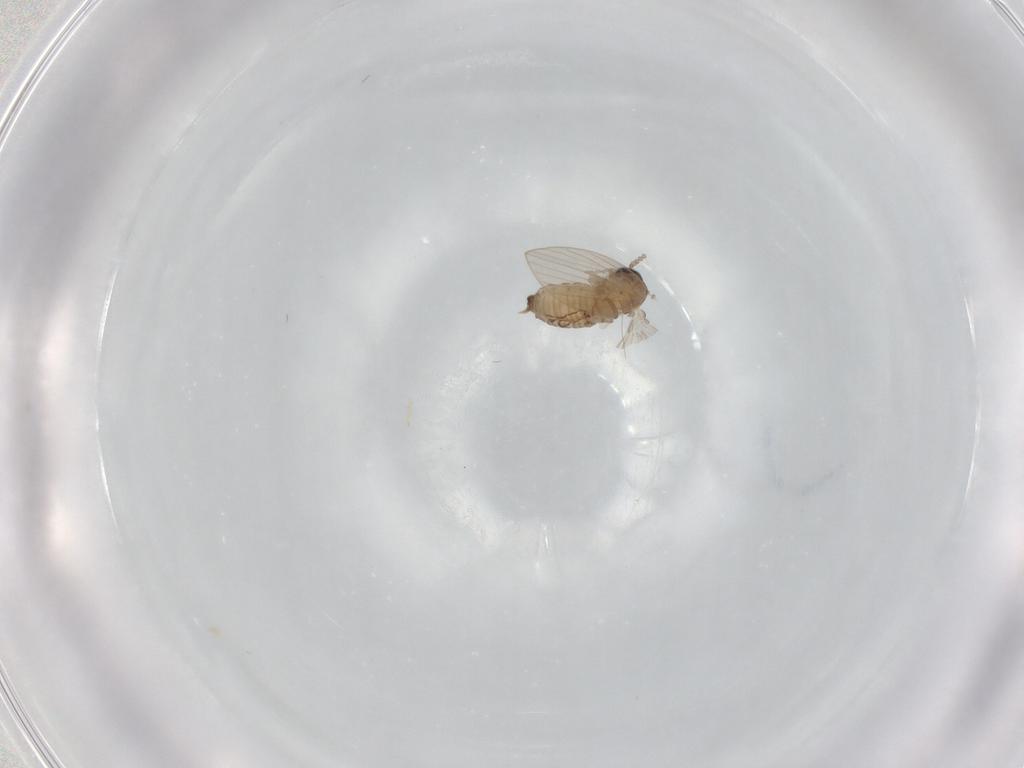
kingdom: Animalia
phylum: Arthropoda
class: Insecta
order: Diptera
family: Psychodidae
